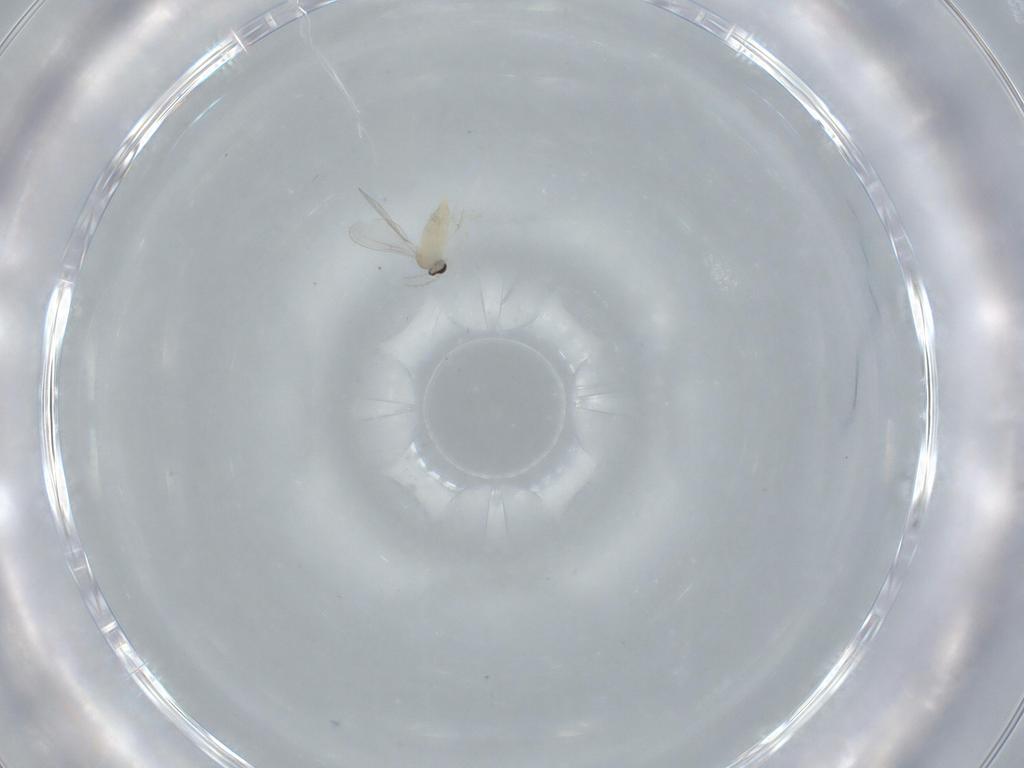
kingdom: Animalia
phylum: Arthropoda
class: Insecta
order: Diptera
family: Cecidomyiidae
